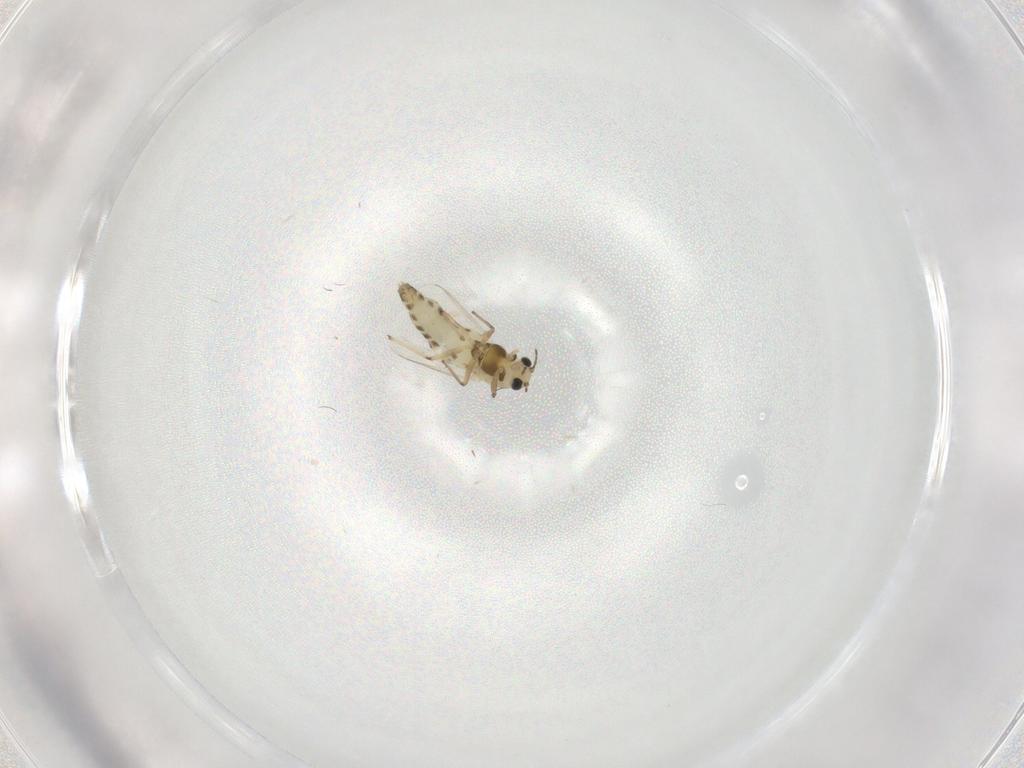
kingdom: Animalia
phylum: Arthropoda
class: Insecta
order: Diptera
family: Chironomidae
